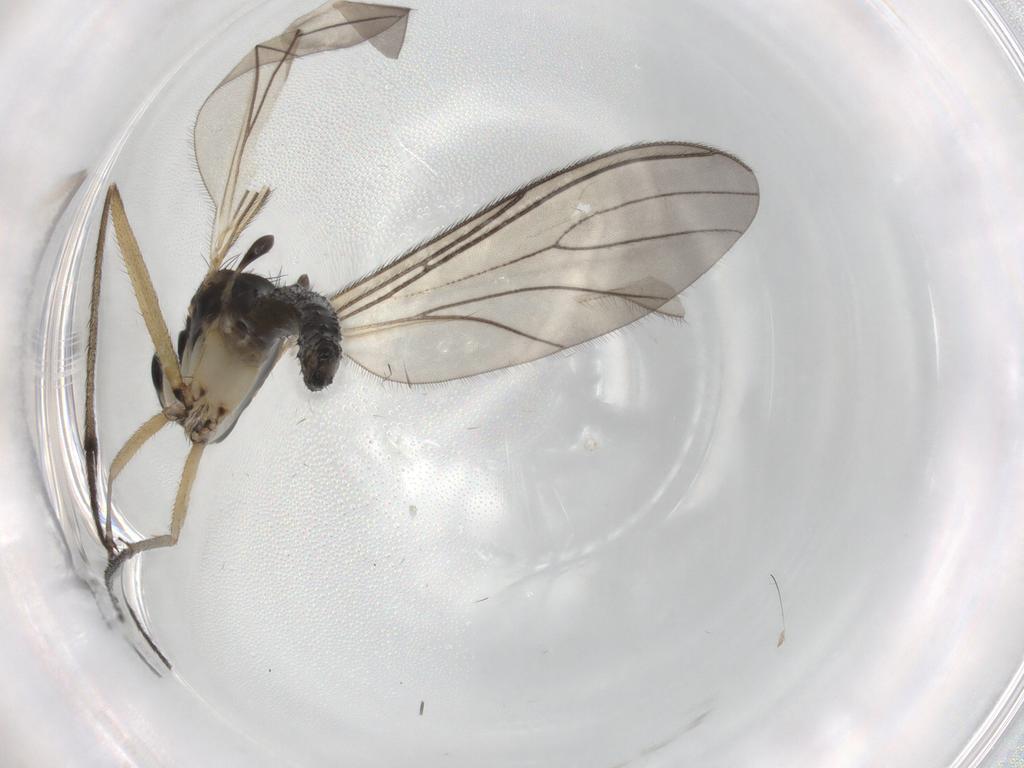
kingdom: Animalia
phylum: Arthropoda
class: Insecta
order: Diptera
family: Sciaridae
